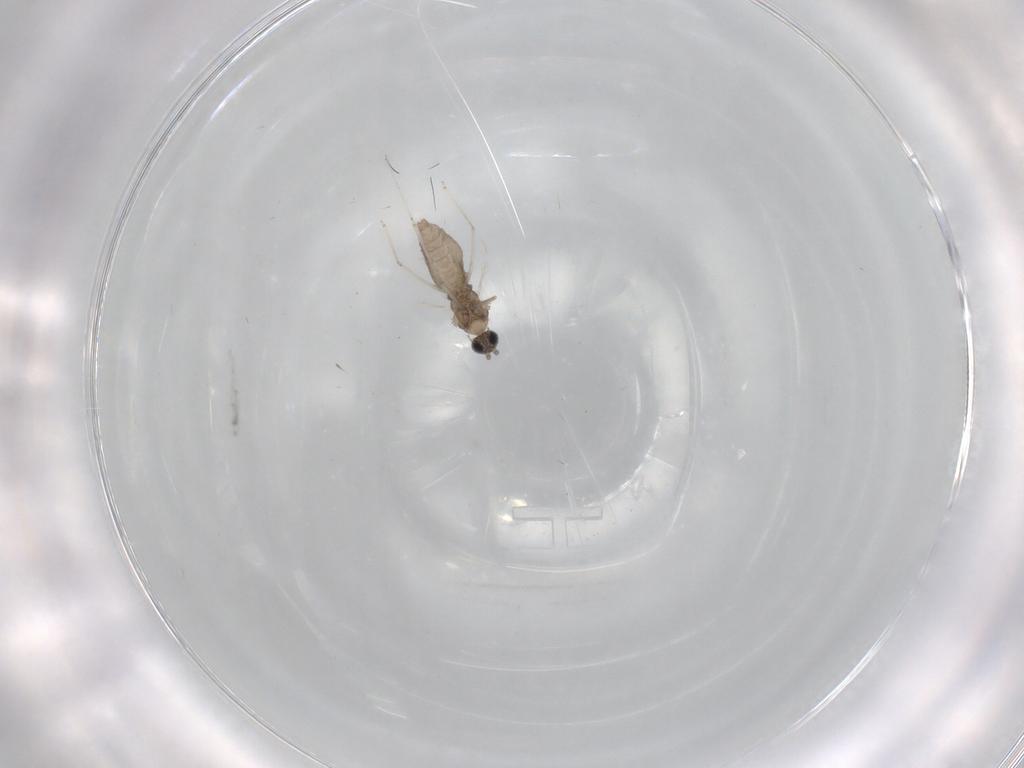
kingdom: Animalia
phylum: Arthropoda
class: Insecta
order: Diptera
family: Cecidomyiidae
